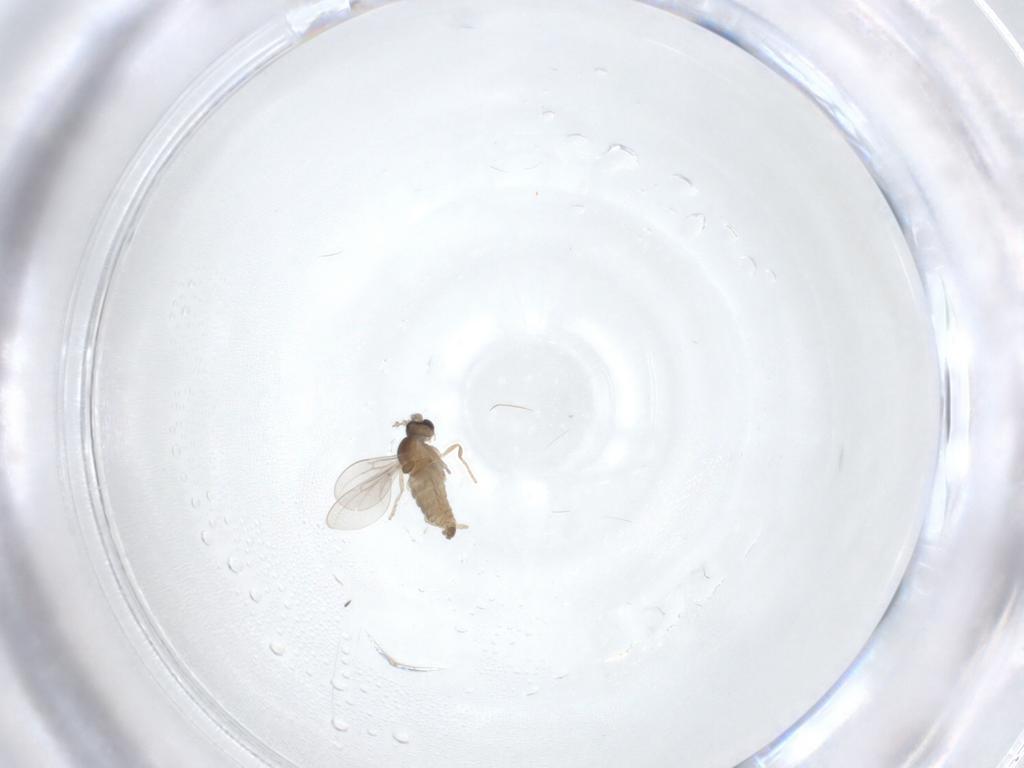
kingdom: Animalia
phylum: Arthropoda
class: Insecta
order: Diptera
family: Cecidomyiidae
